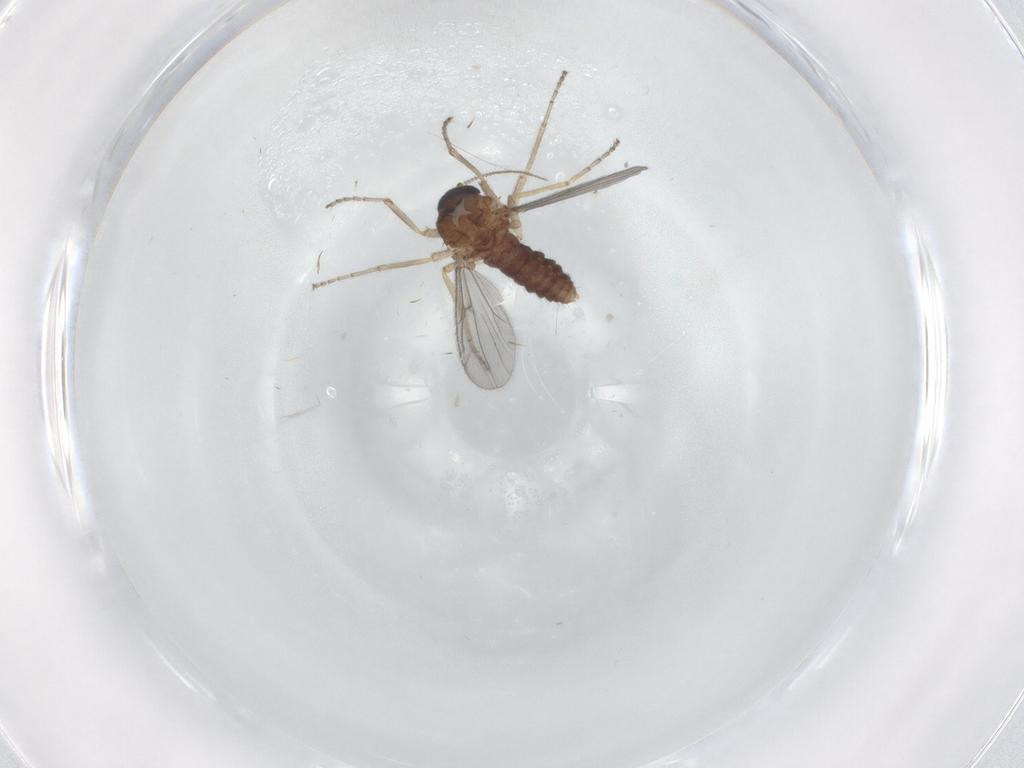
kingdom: Animalia
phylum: Arthropoda
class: Insecta
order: Diptera
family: Ceratopogonidae
